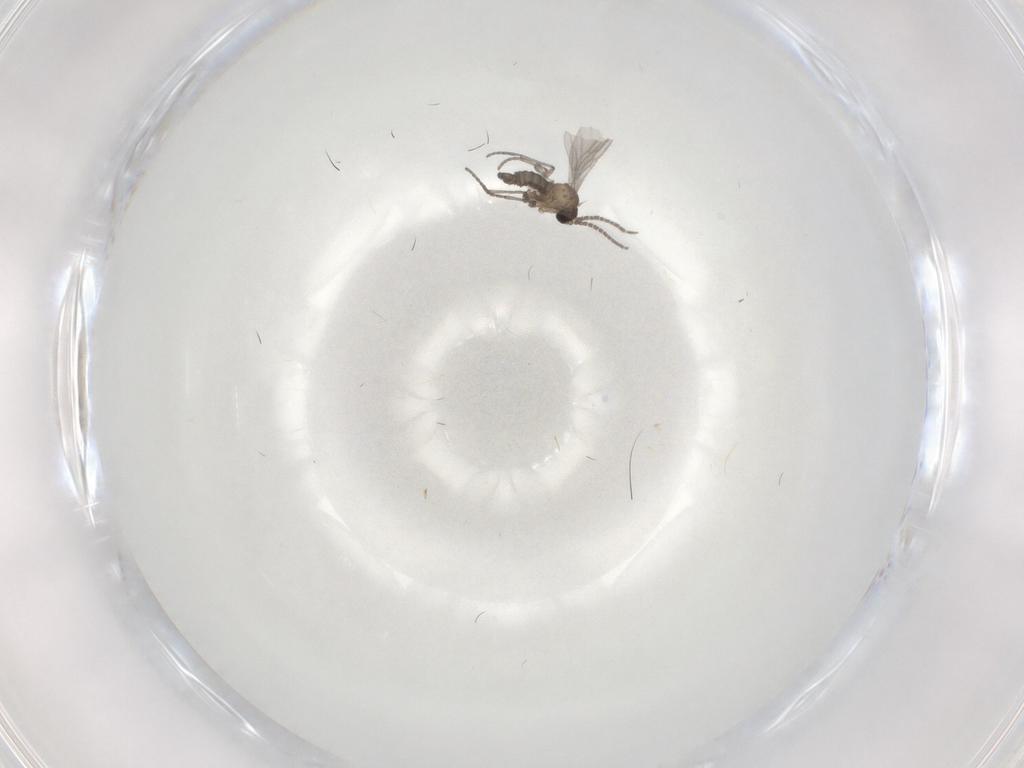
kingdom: Animalia
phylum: Arthropoda
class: Insecta
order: Diptera
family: Sciaridae
